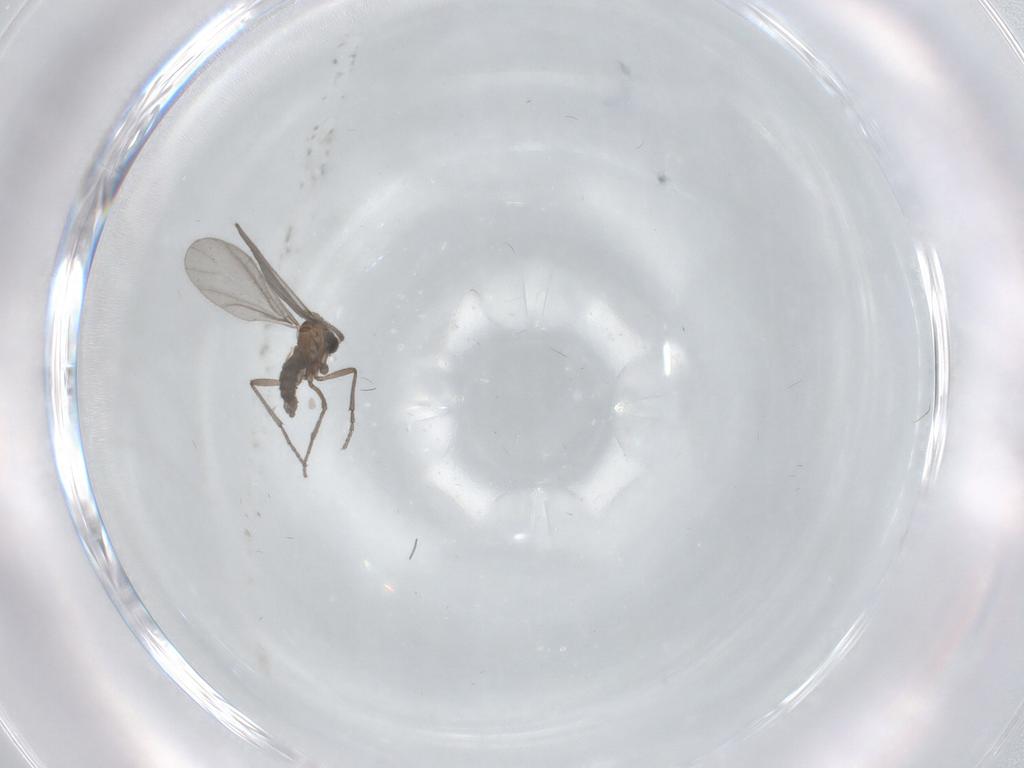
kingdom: Animalia
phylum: Arthropoda
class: Insecta
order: Diptera
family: Sciaridae
